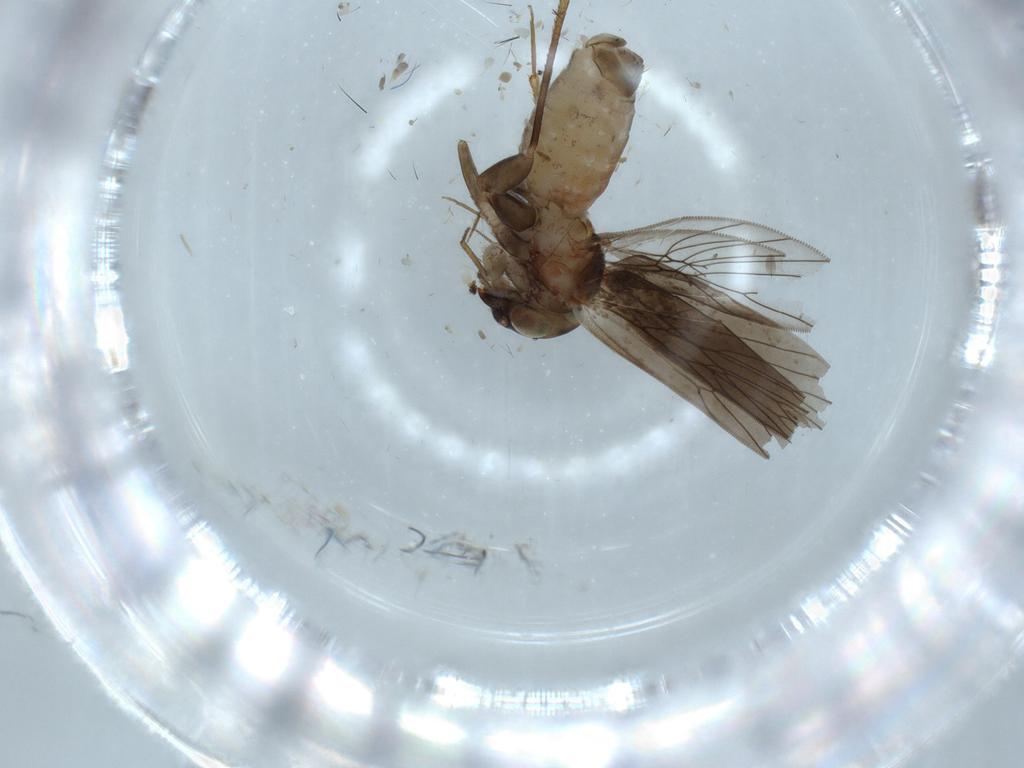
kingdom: Animalia
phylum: Arthropoda
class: Insecta
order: Psocodea
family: Lepidopsocidae
